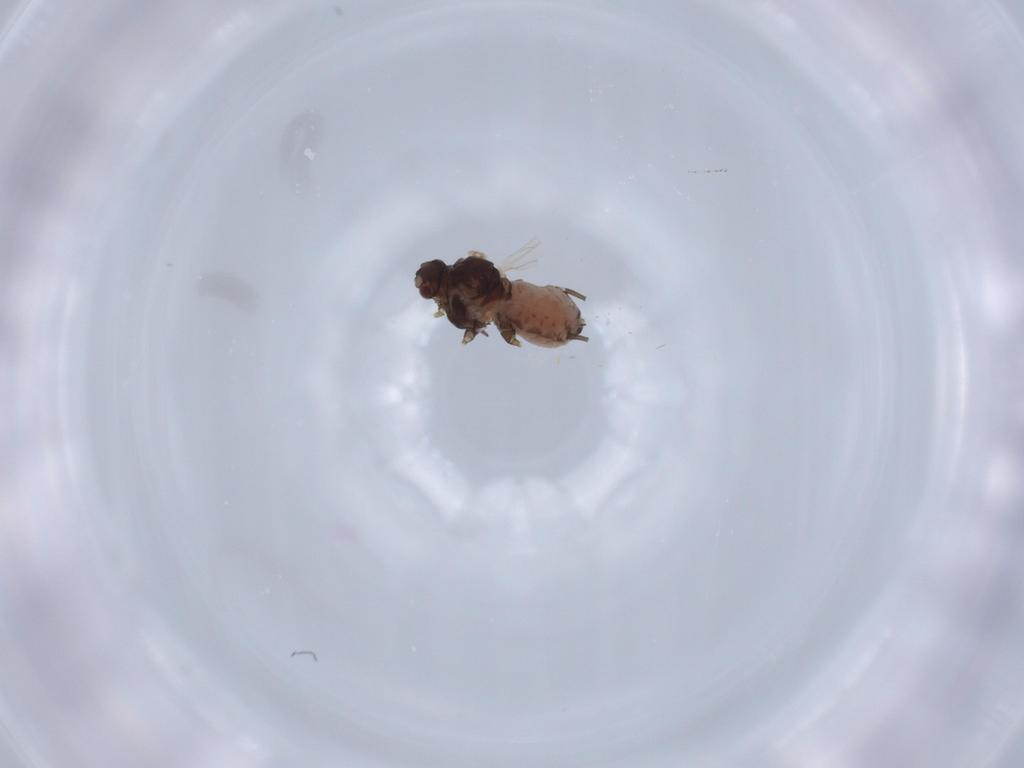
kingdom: Animalia
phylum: Arthropoda
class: Insecta
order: Hemiptera
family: Aphididae
